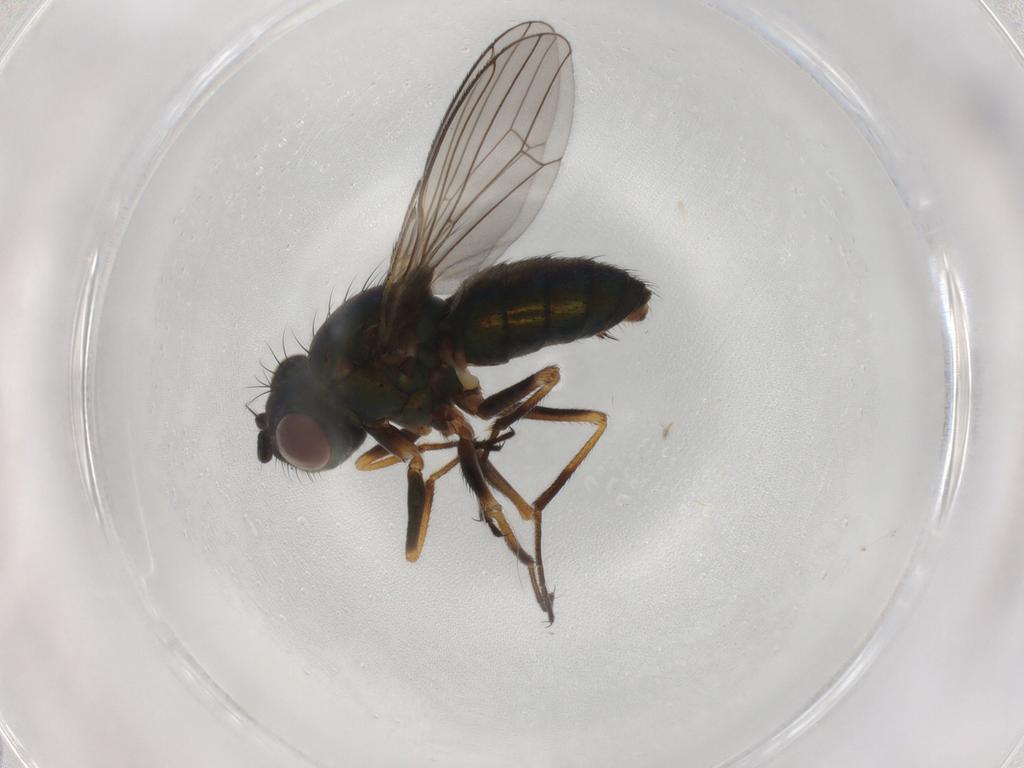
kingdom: Animalia
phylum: Arthropoda
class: Insecta
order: Diptera
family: Ephydridae
